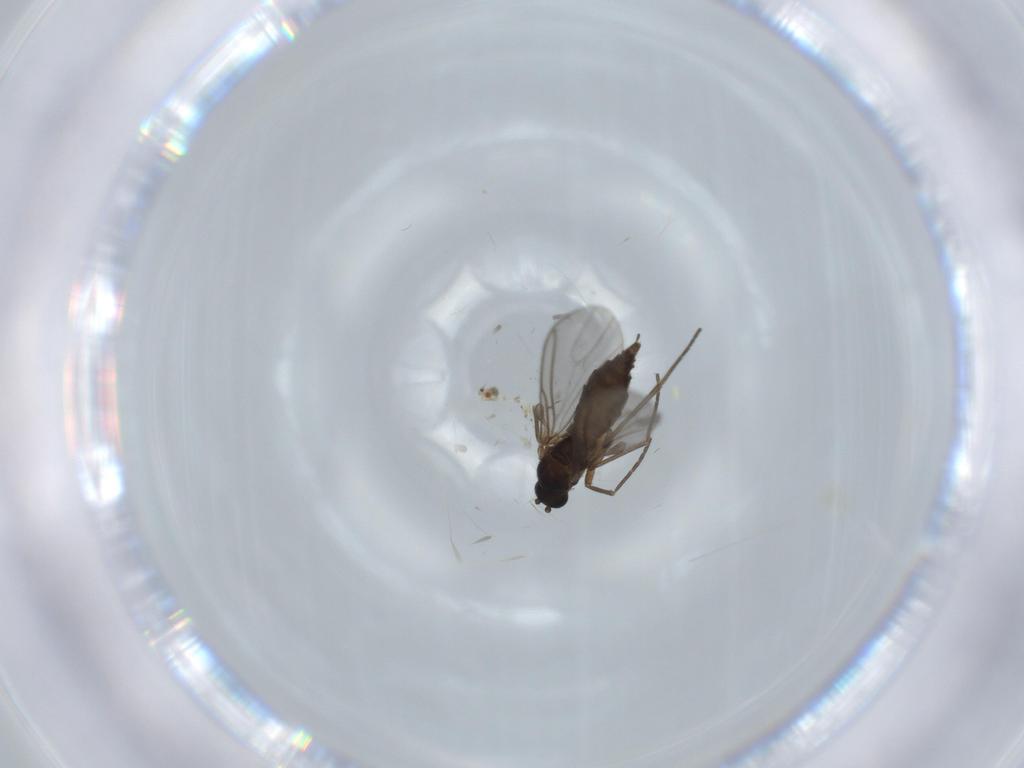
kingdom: Animalia
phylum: Arthropoda
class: Insecta
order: Diptera
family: Sciaridae
